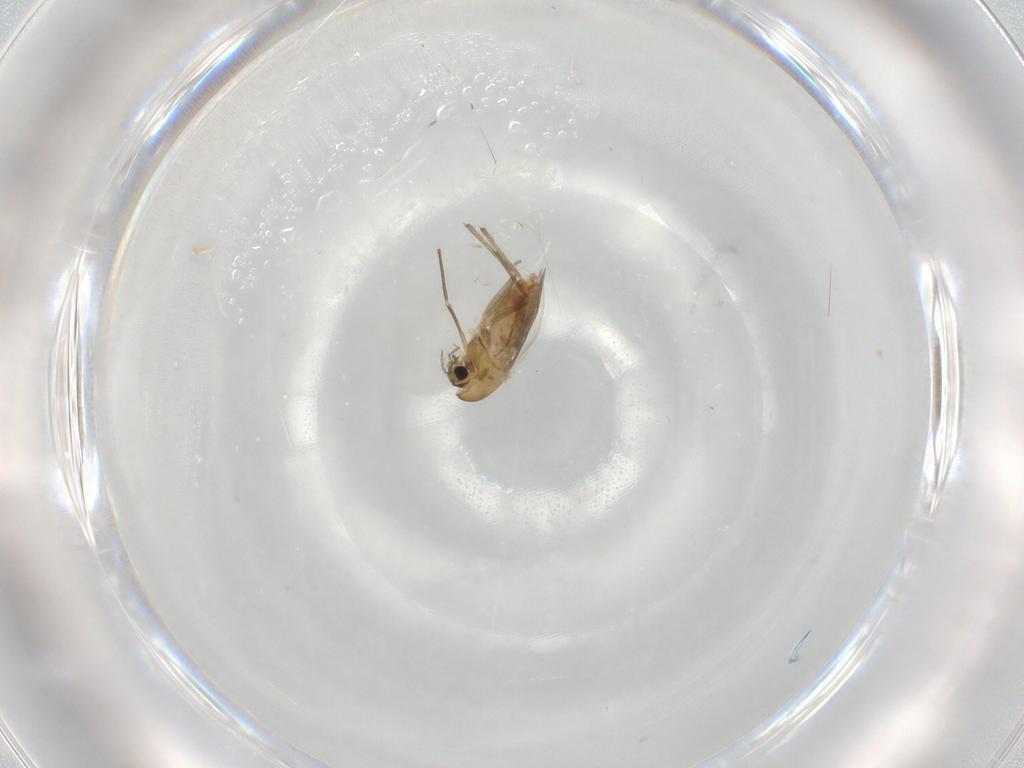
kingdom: Animalia
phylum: Arthropoda
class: Insecta
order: Diptera
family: Chironomidae
